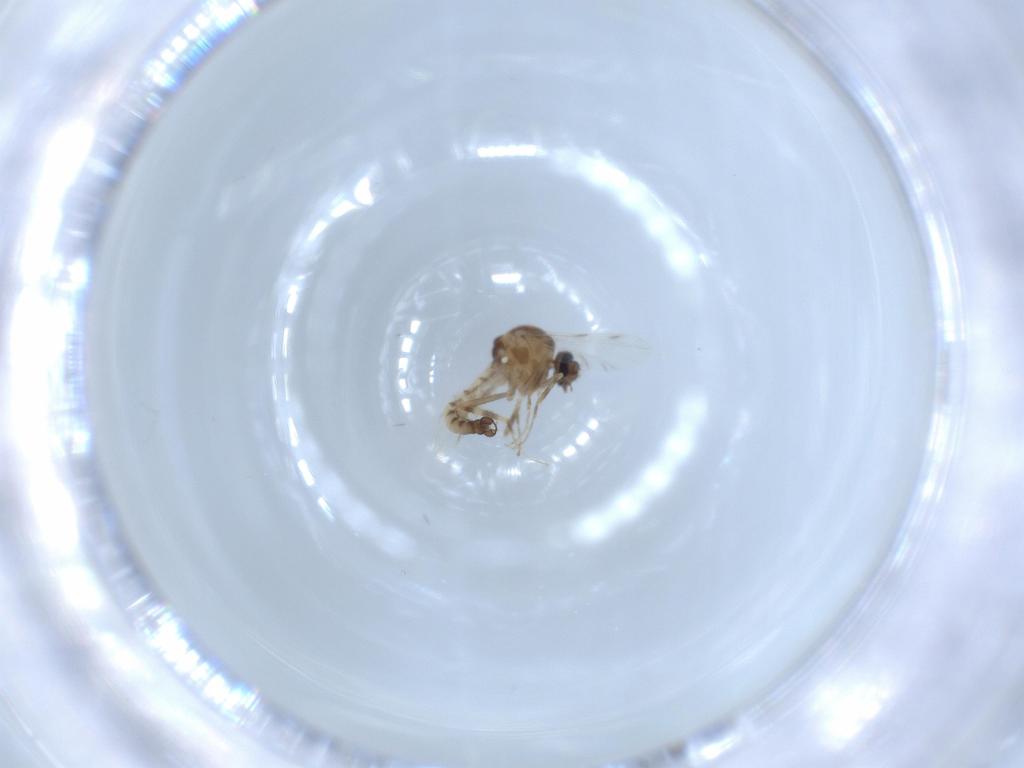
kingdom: Animalia
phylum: Arthropoda
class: Insecta
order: Diptera
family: Ceratopogonidae
